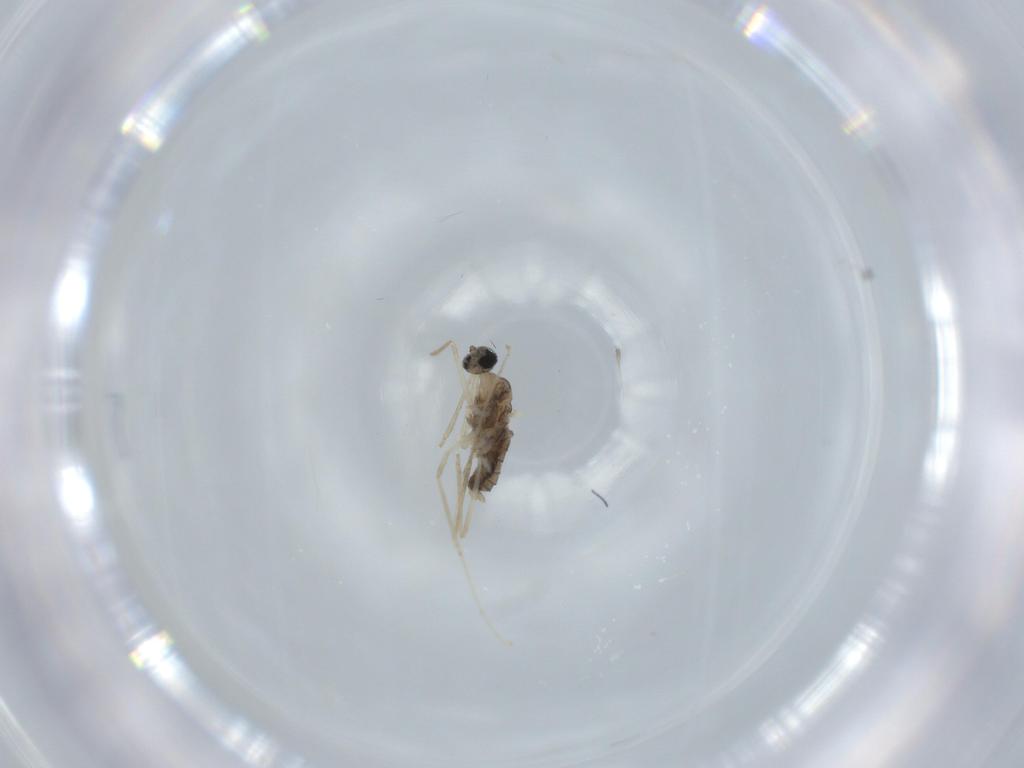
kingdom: Animalia
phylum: Arthropoda
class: Insecta
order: Diptera
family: Cecidomyiidae
